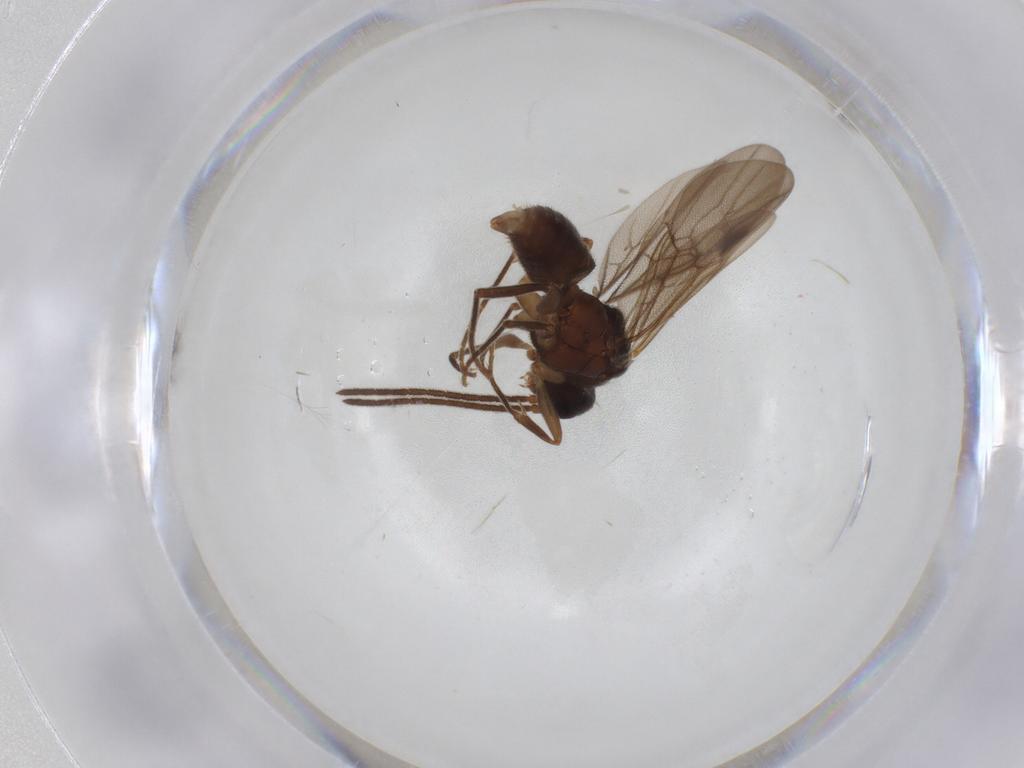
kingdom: Animalia
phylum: Arthropoda
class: Insecta
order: Hymenoptera
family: Formicidae
